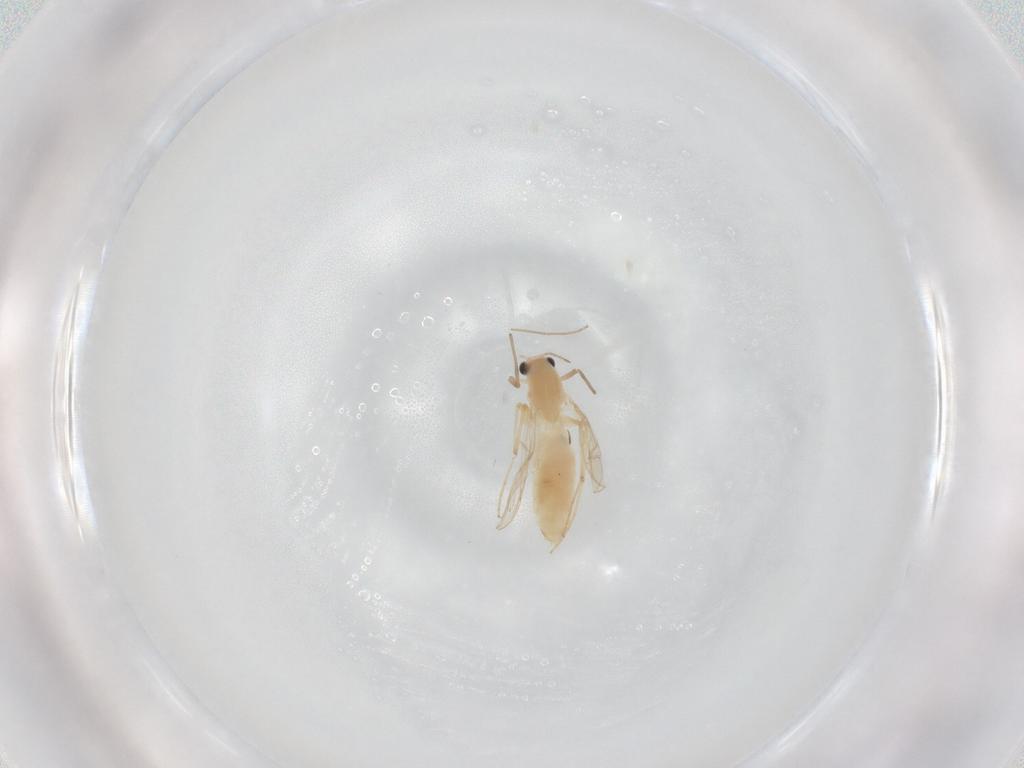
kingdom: Animalia
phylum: Arthropoda
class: Insecta
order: Diptera
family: Chironomidae
